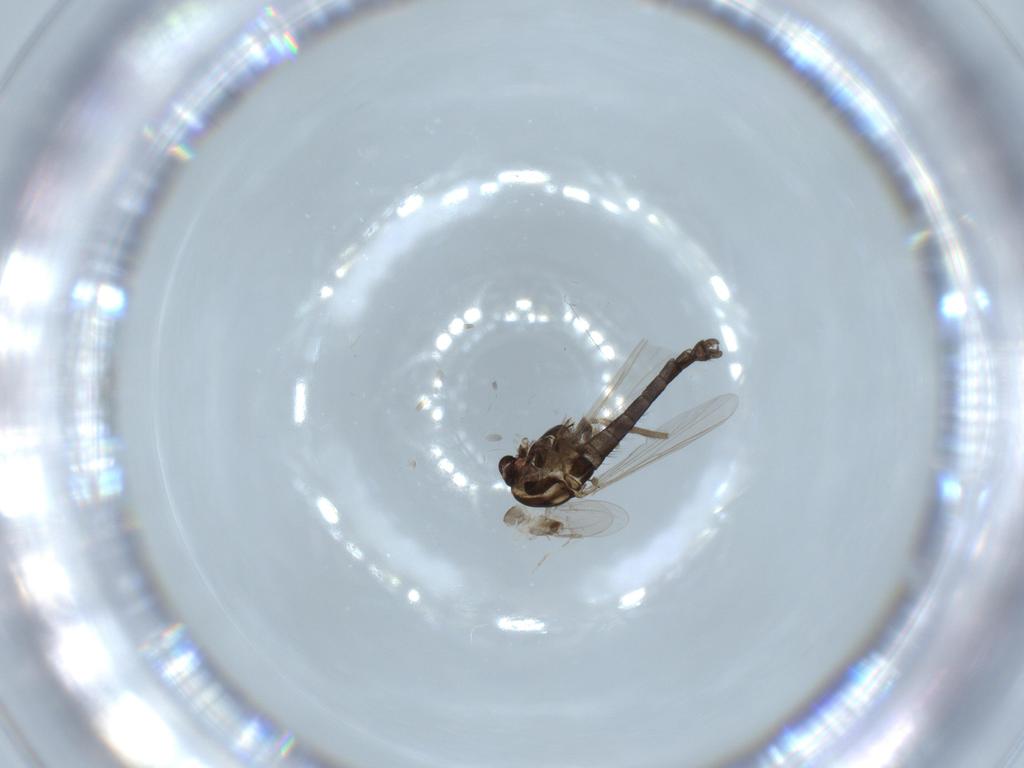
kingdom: Animalia
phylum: Arthropoda
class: Insecta
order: Diptera
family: Chironomidae
